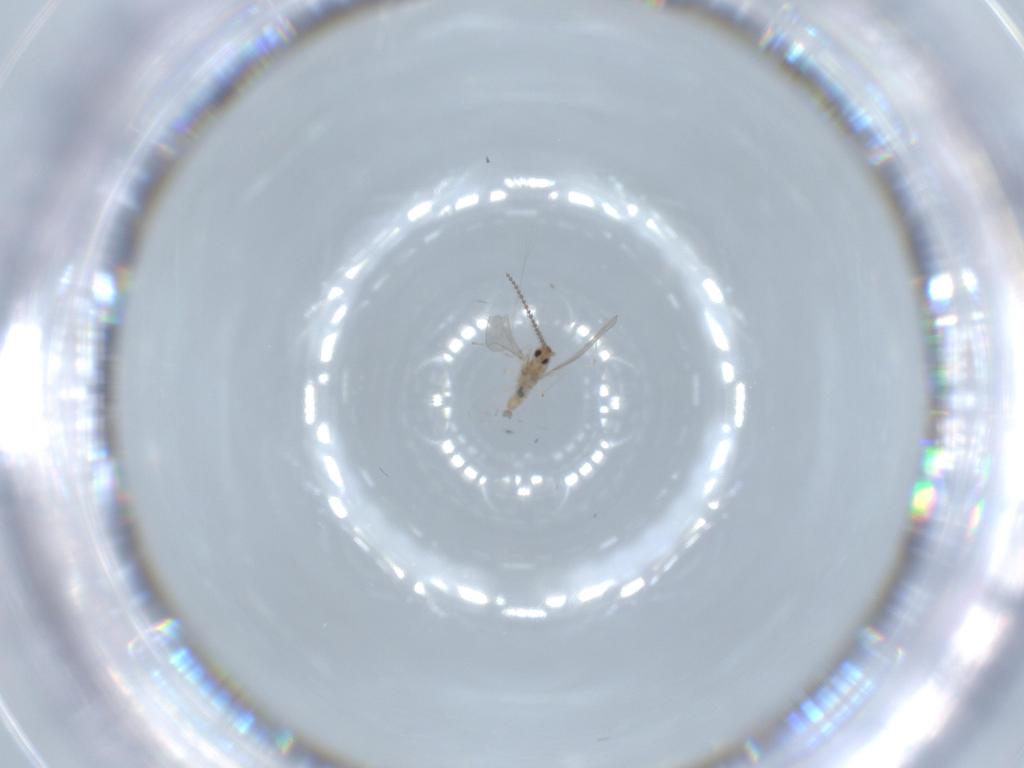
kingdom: Animalia
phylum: Arthropoda
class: Insecta
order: Diptera
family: Cecidomyiidae
